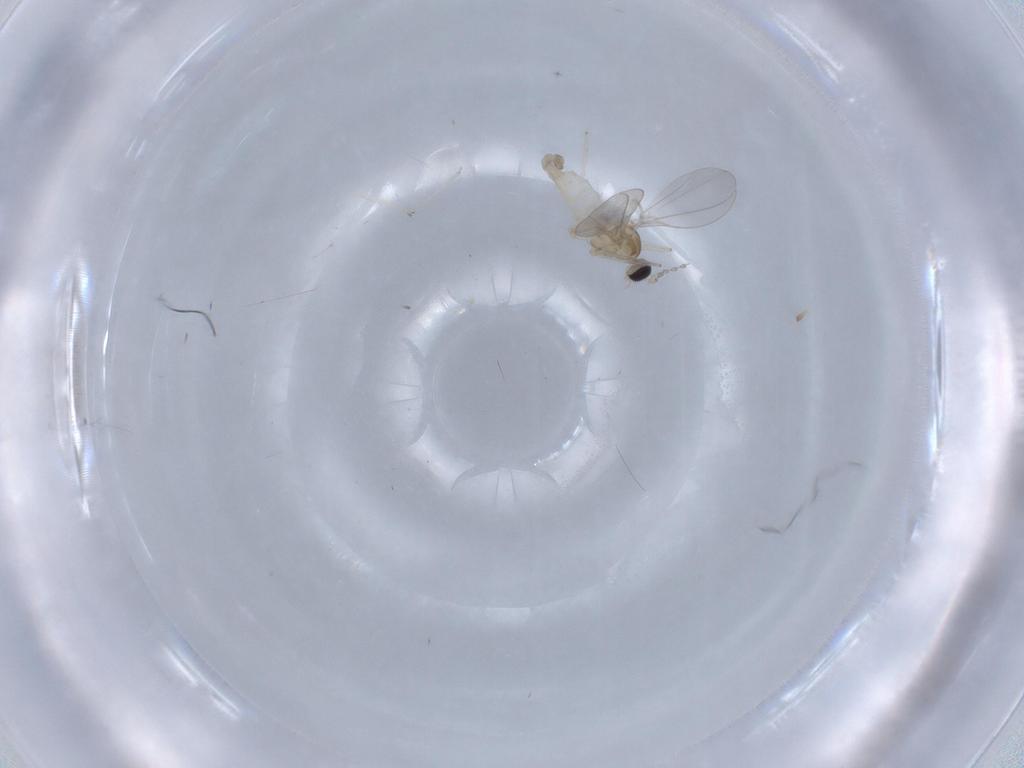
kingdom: Animalia
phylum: Arthropoda
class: Insecta
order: Diptera
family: Cecidomyiidae
